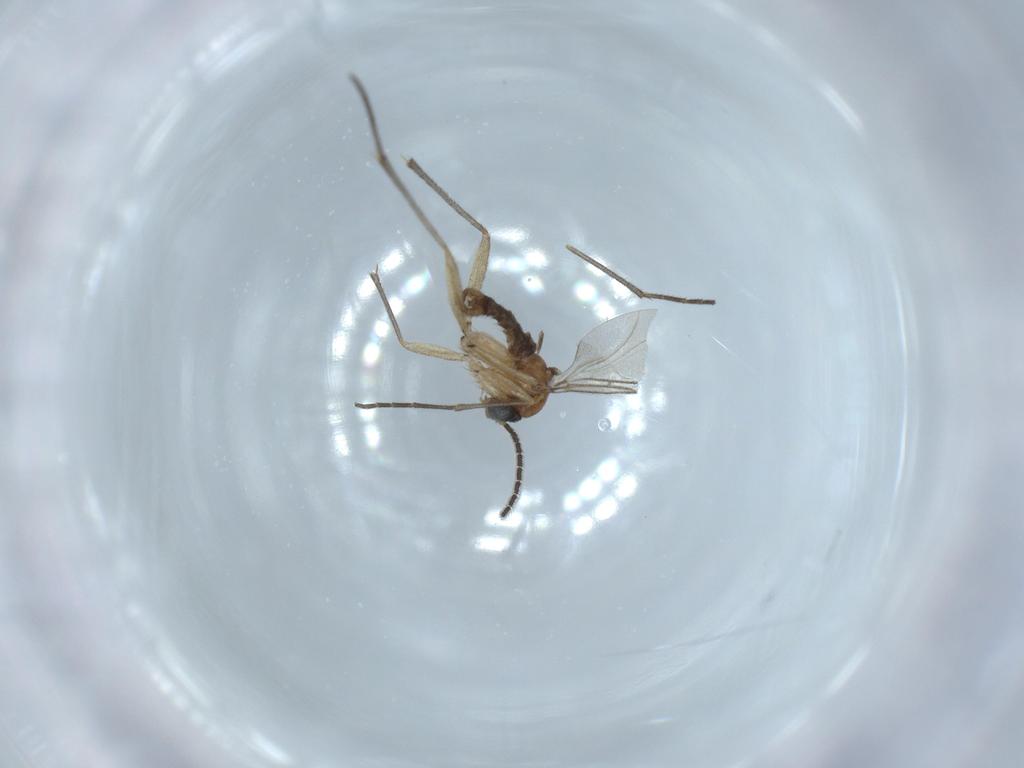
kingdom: Animalia
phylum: Arthropoda
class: Insecta
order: Diptera
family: Sciaridae
